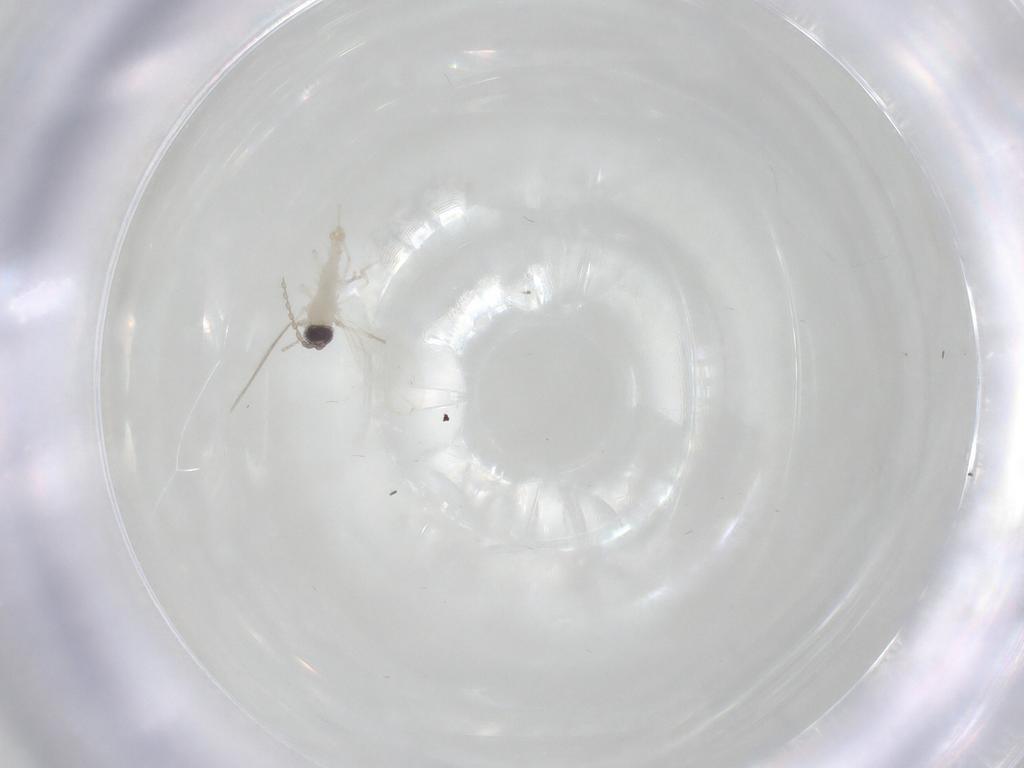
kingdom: Animalia
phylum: Arthropoda
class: Insecta
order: Diptera
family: Cecidomyiidae
